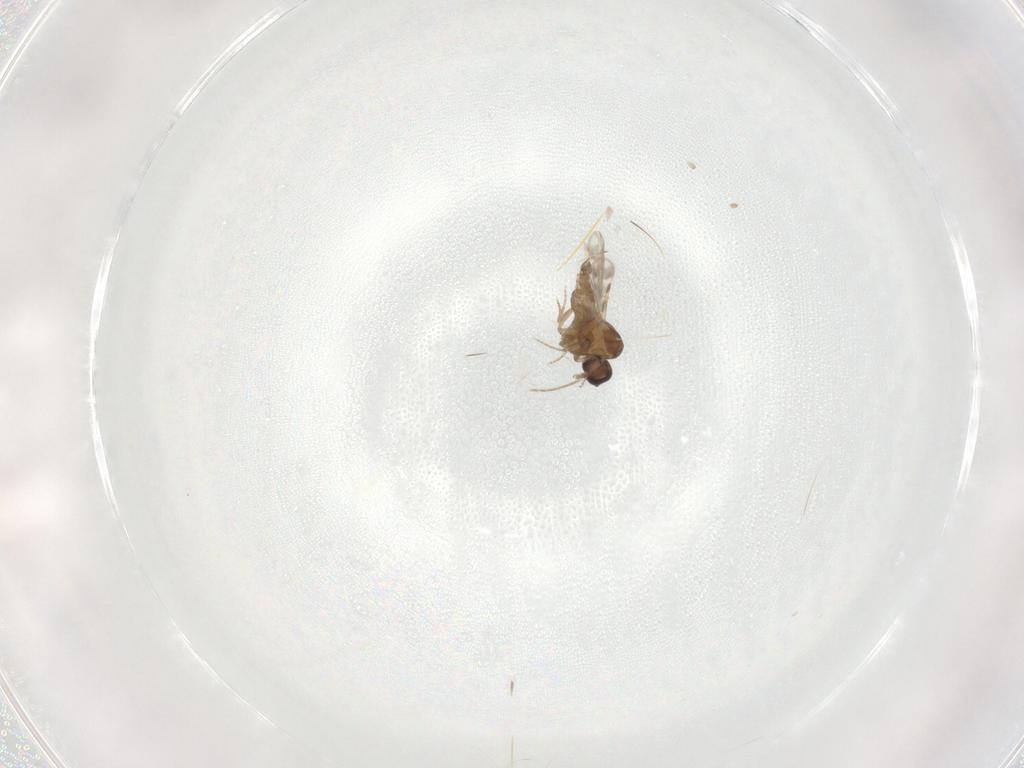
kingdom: Animalia
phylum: Arthropoda
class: Insecta
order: Diptera
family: Ceratopogonidae
